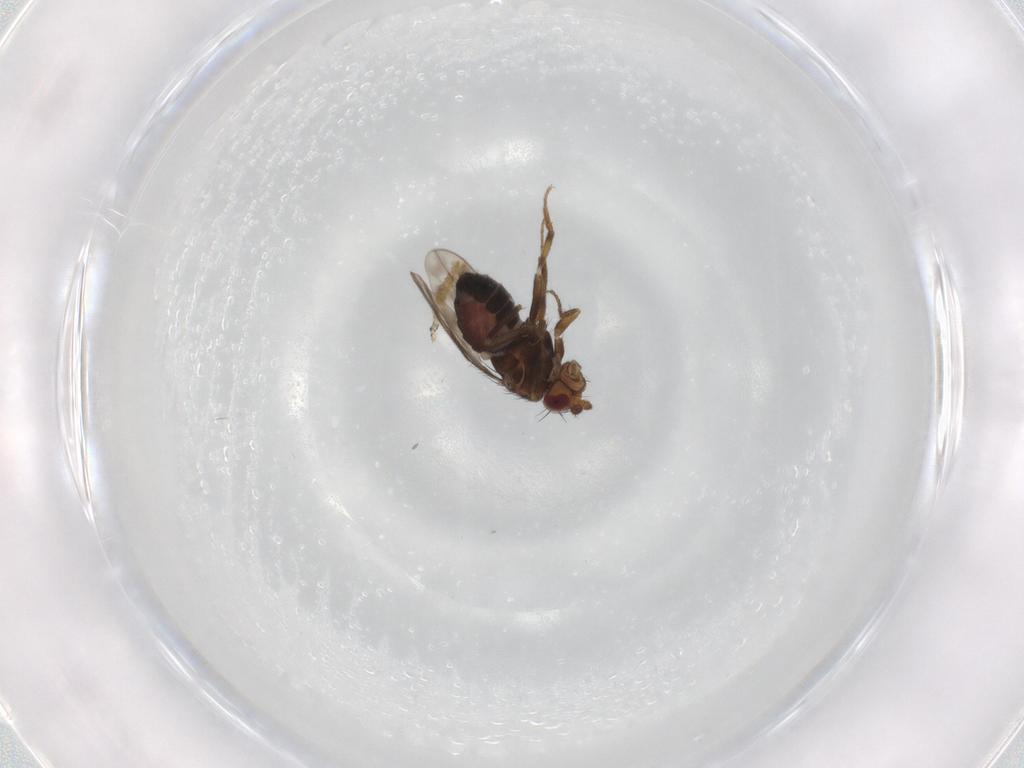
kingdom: Animalia
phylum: Arthropoda
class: Insecta
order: Diptera
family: Sphaeroceridae
